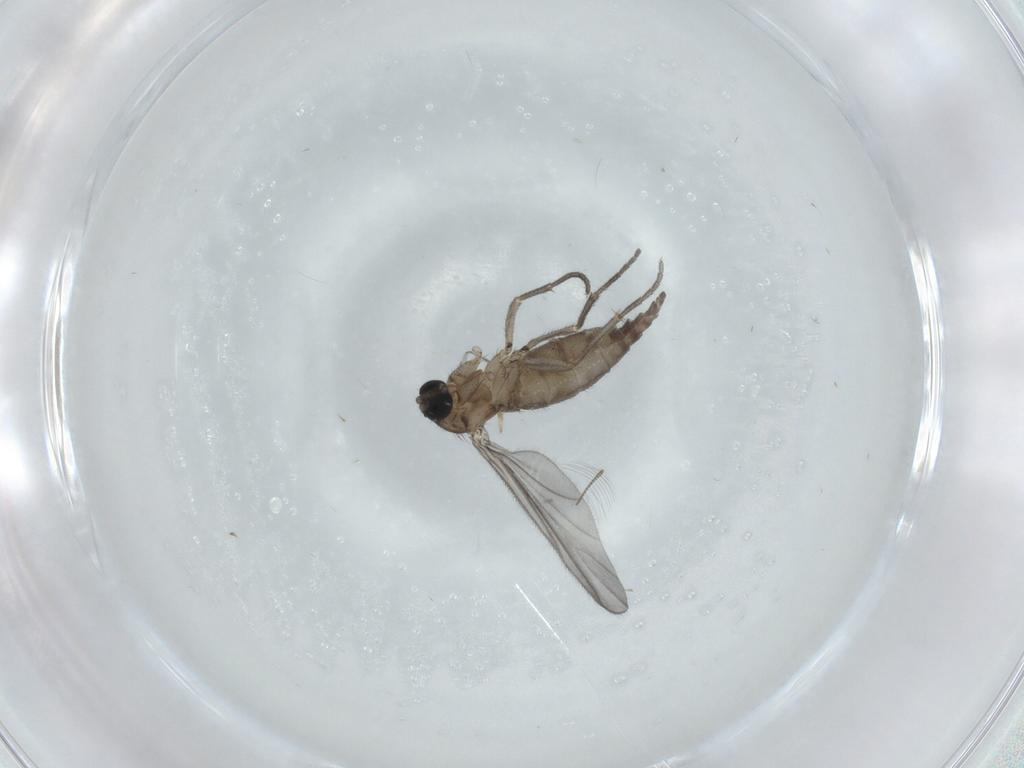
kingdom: Animalia
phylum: Arthropoda
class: Insecta
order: Diptera
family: Sciaridae
